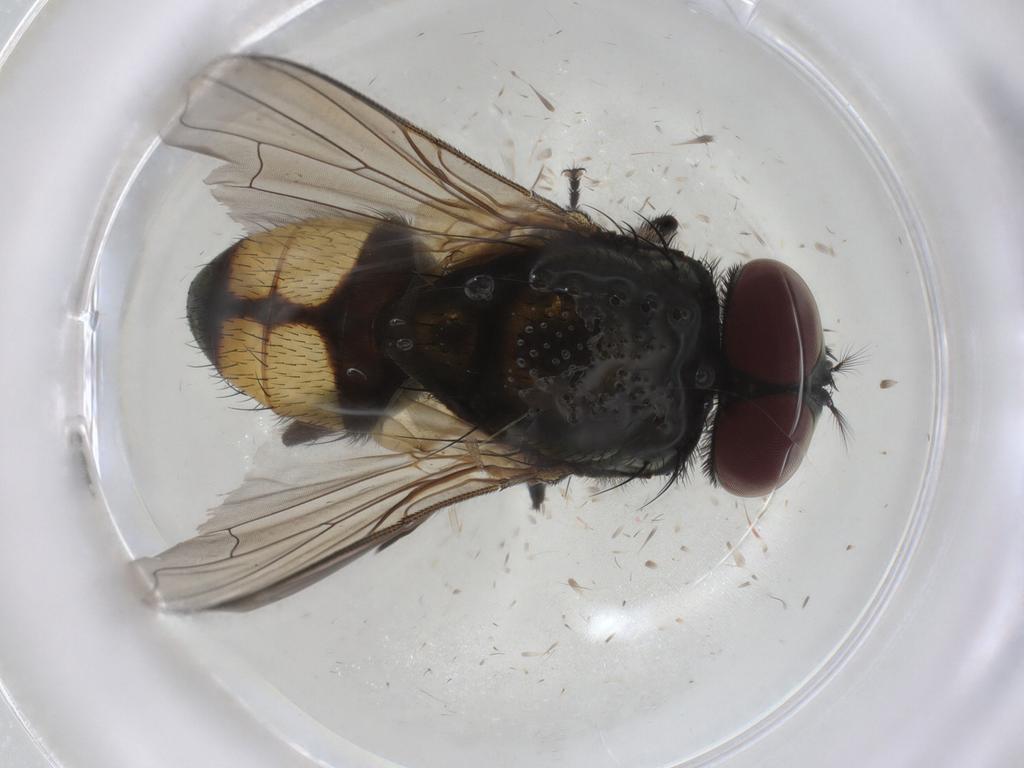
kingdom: Animalia
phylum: Arthropoda
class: Insecta
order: Diptera
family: Muscidae
